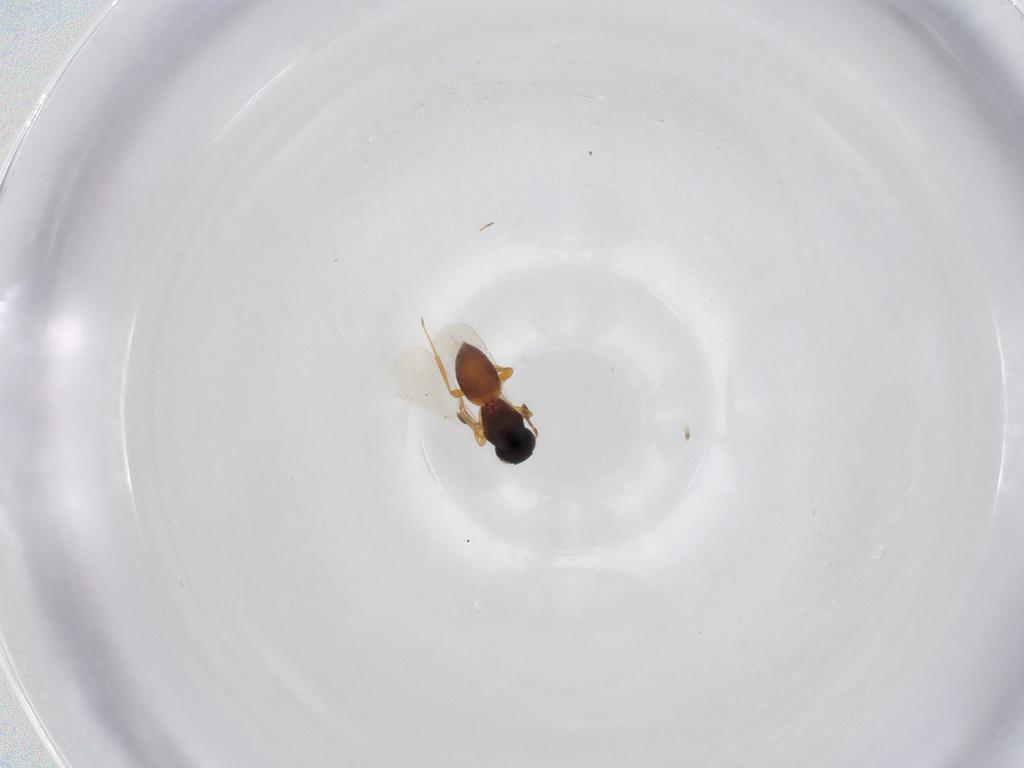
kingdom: Animalia
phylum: Arthropoda
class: Insecta
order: Hymenoptera
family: Platygastridae
